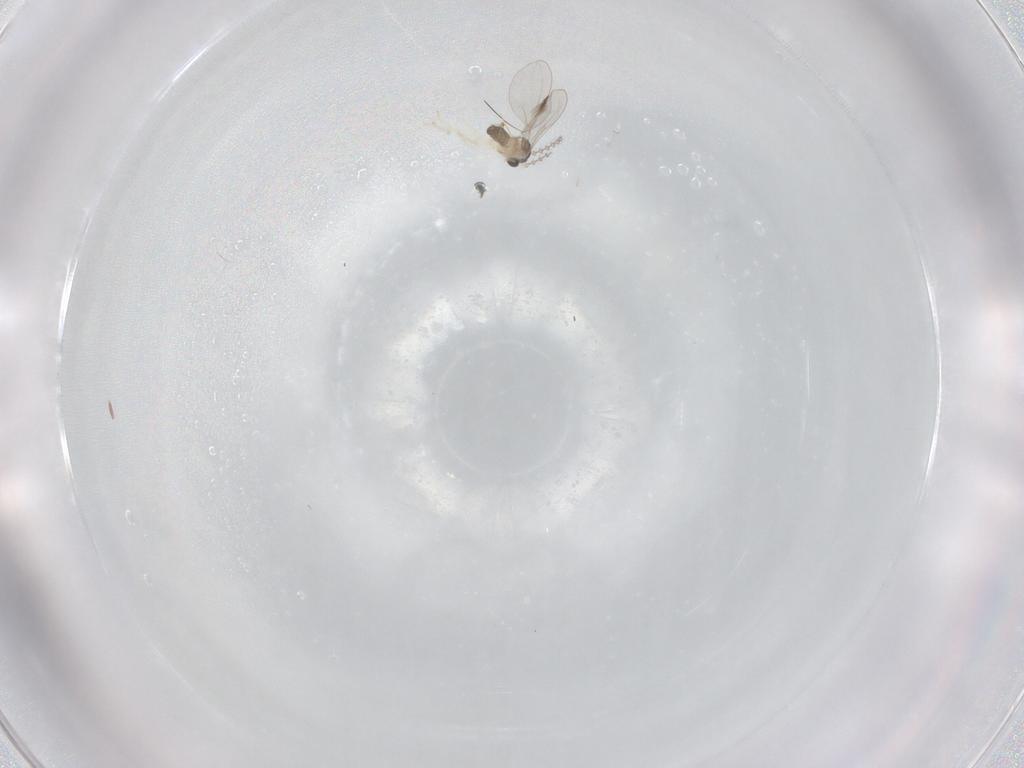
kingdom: Animalia
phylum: Arthropoda
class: Insecta
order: Diptera
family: Cecidomyiidae
